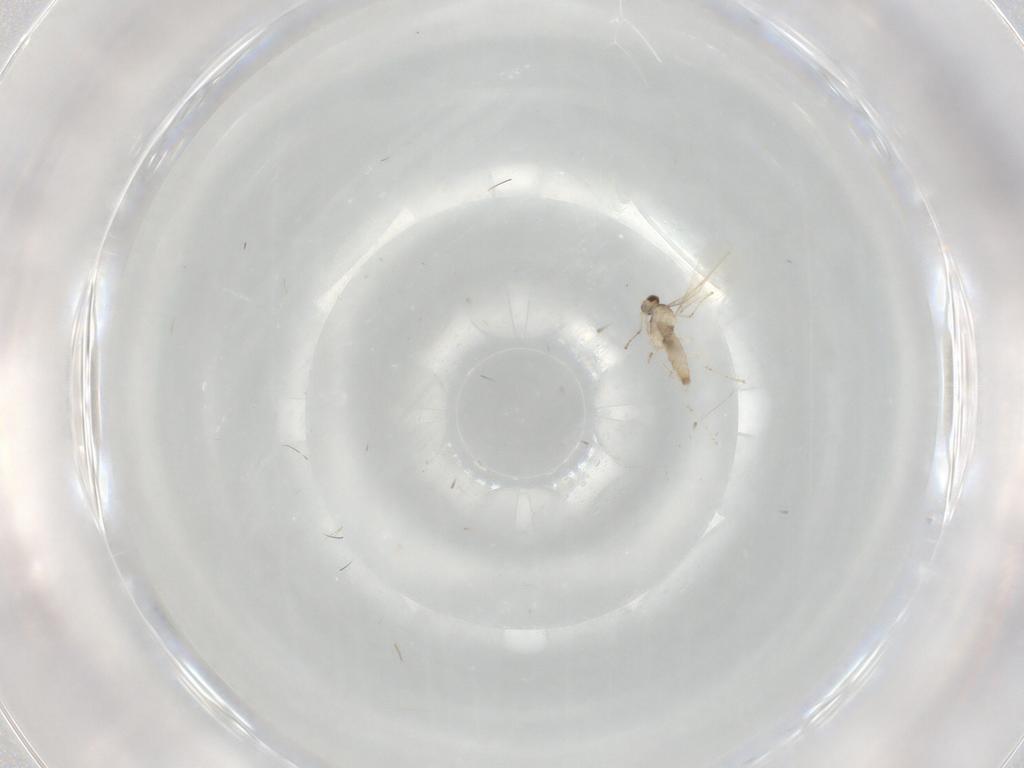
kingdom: Animalia
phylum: Arthropoda
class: Insecta
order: Diptera
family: Cecidomyiidae
